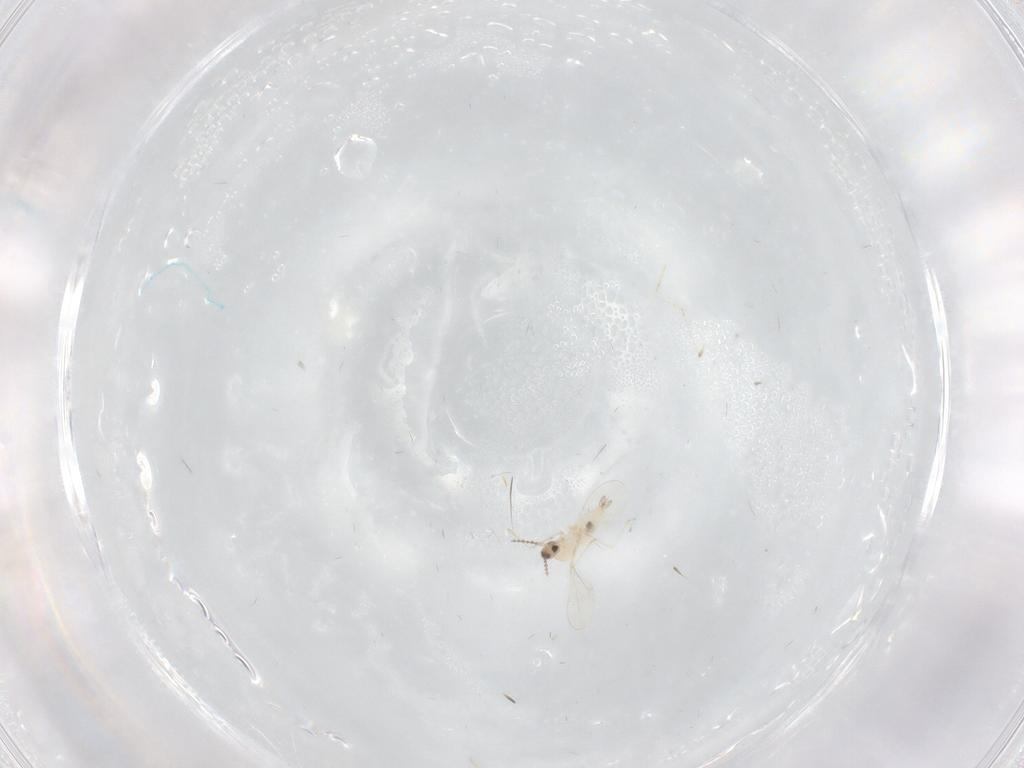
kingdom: Animalia
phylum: Arthropoda
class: Insecta
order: Diptera
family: Cecidomyiidae
